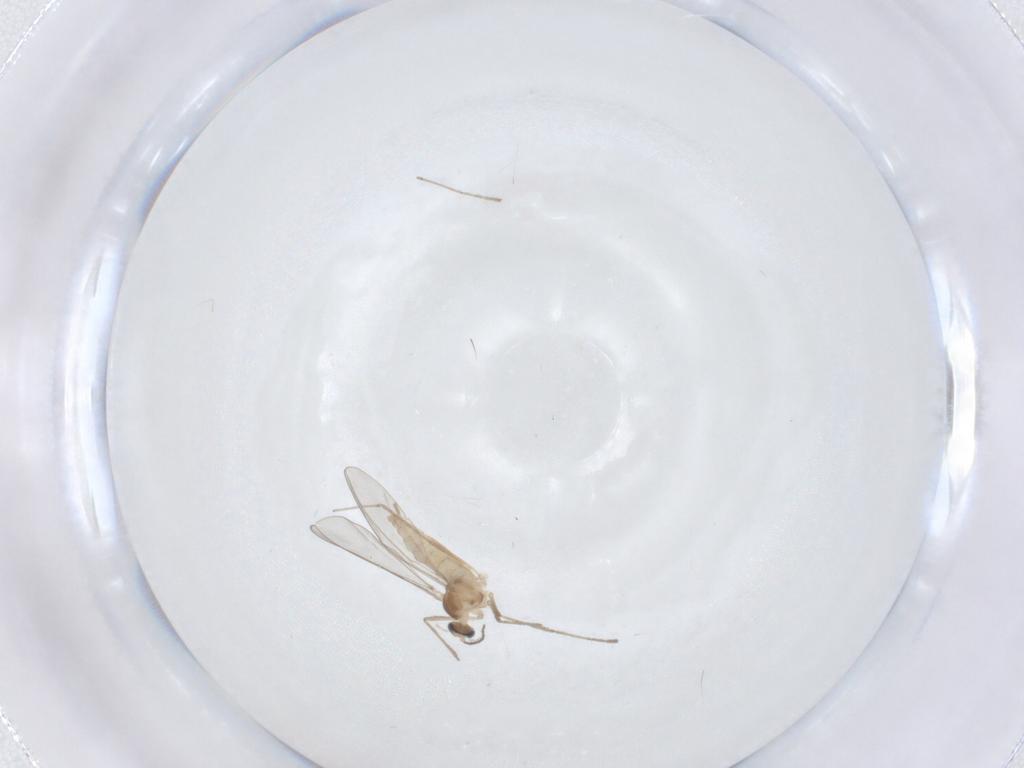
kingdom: Animalia
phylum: Arthropoda
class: Insecta
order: Diptera
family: Cecidomyiidae
